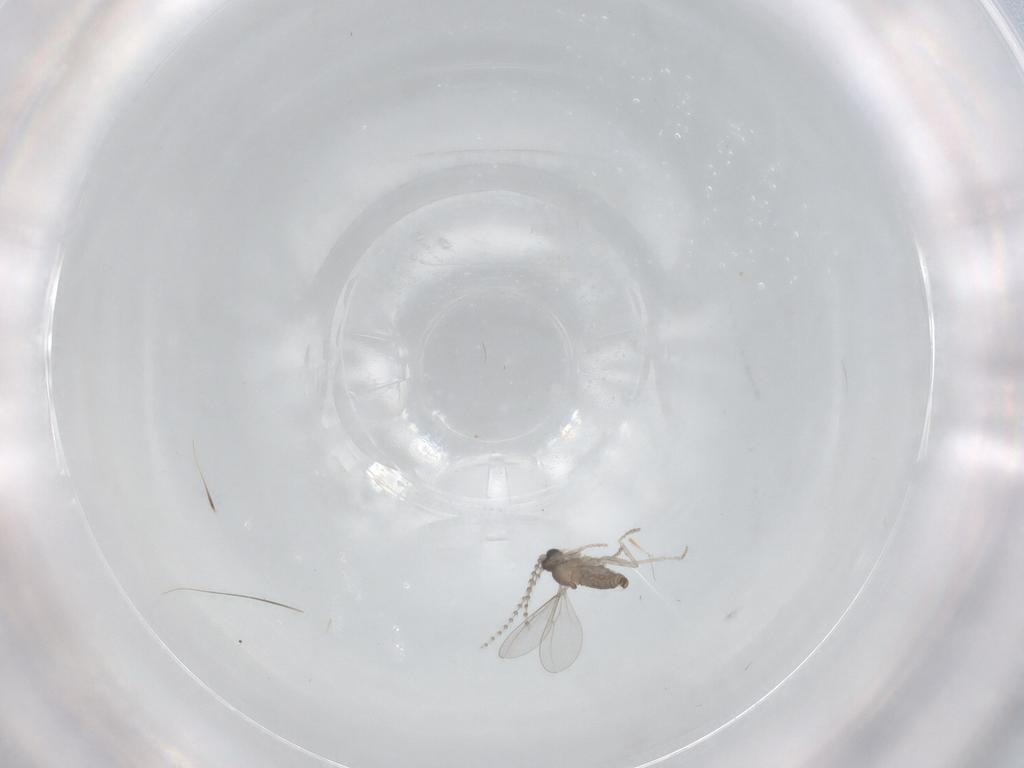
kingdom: Animalia
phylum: Arthropoda
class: Insecta
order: Diptera
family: Cecidomyiidae
